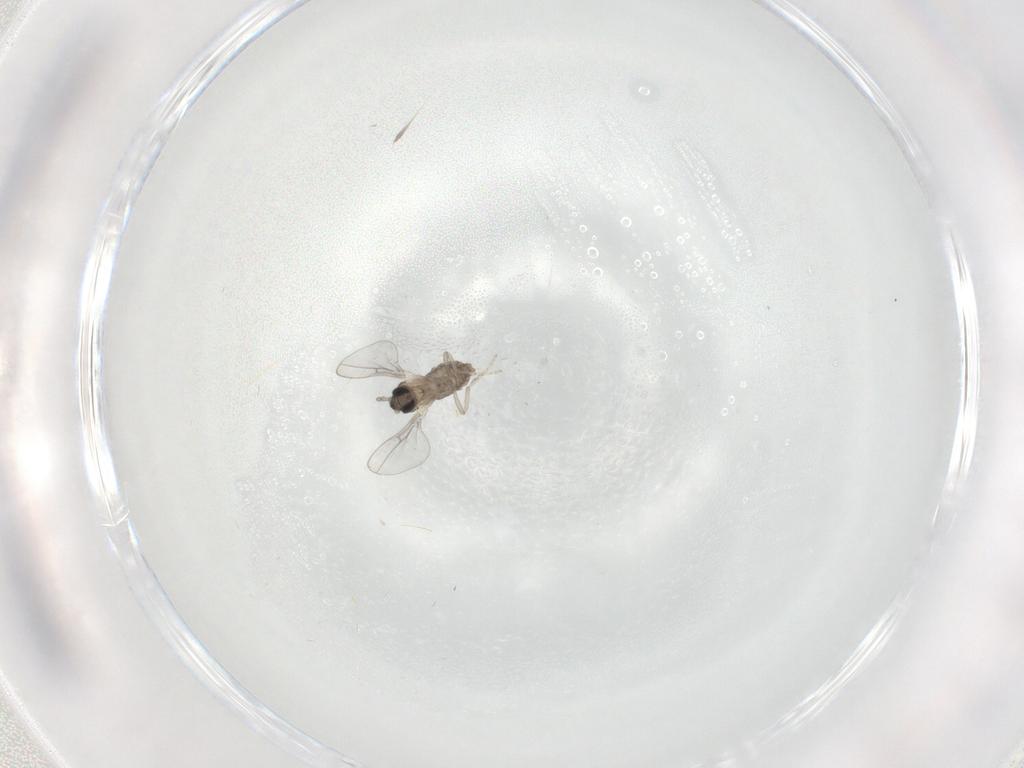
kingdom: Animalia
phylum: Arthropoda
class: Insecta
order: Diptera
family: Cecidomyiidae
